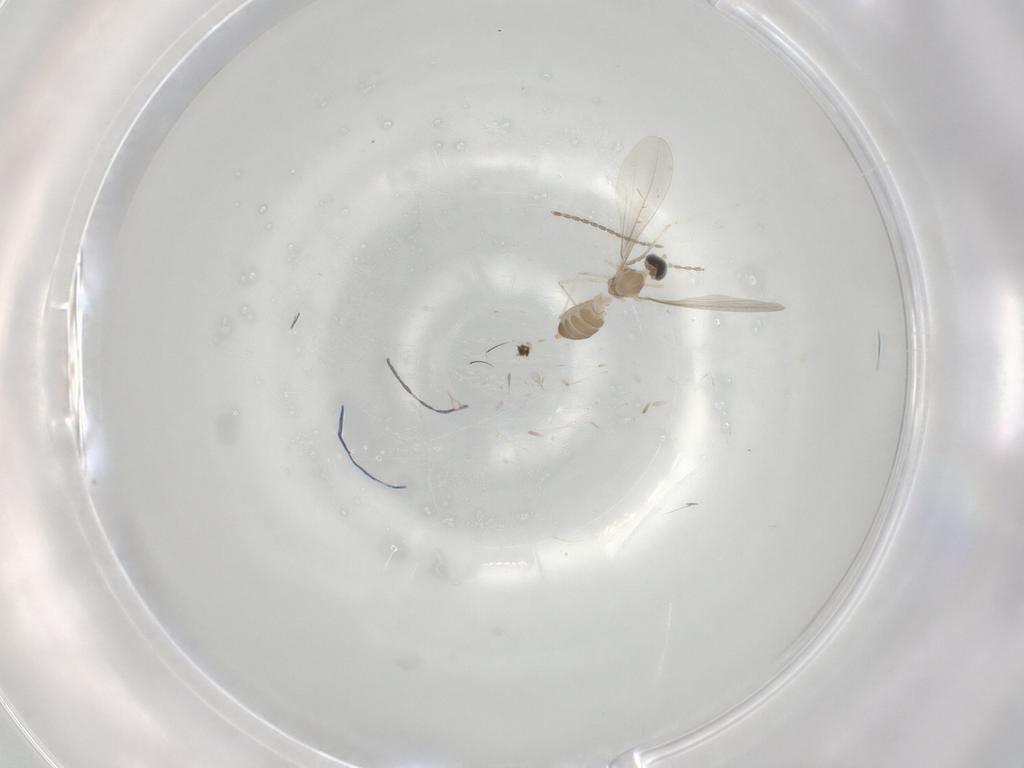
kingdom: Animalia
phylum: Arthropoda
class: Insecta
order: Diptera
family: Cecidomyiidae
